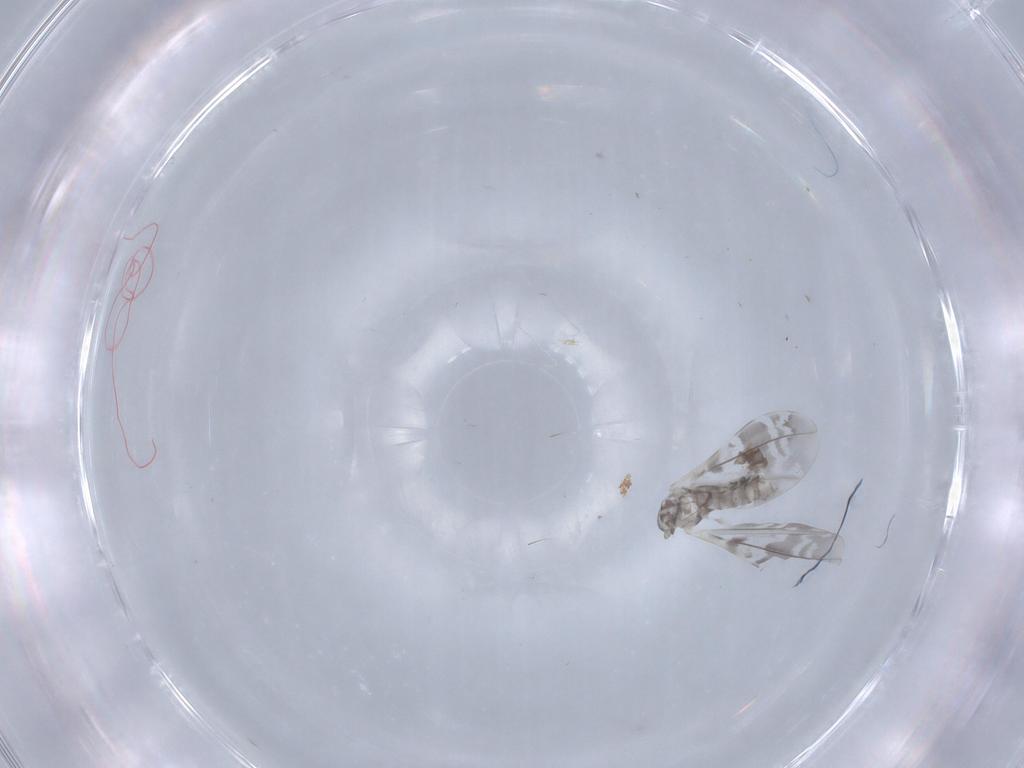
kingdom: Animalia
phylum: Arthropoda
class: Insecta
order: Diptera
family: Cecidomyiidae
